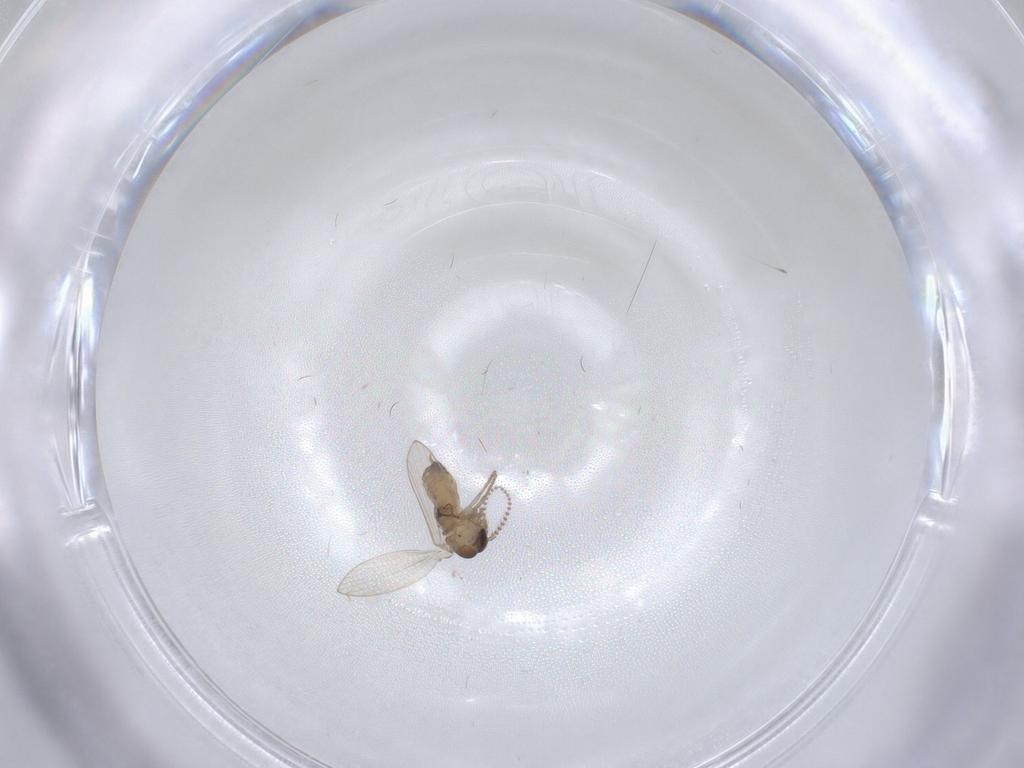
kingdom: Animalia
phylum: Arthropoda
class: Insecta
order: Diptera
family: Psychodidae
